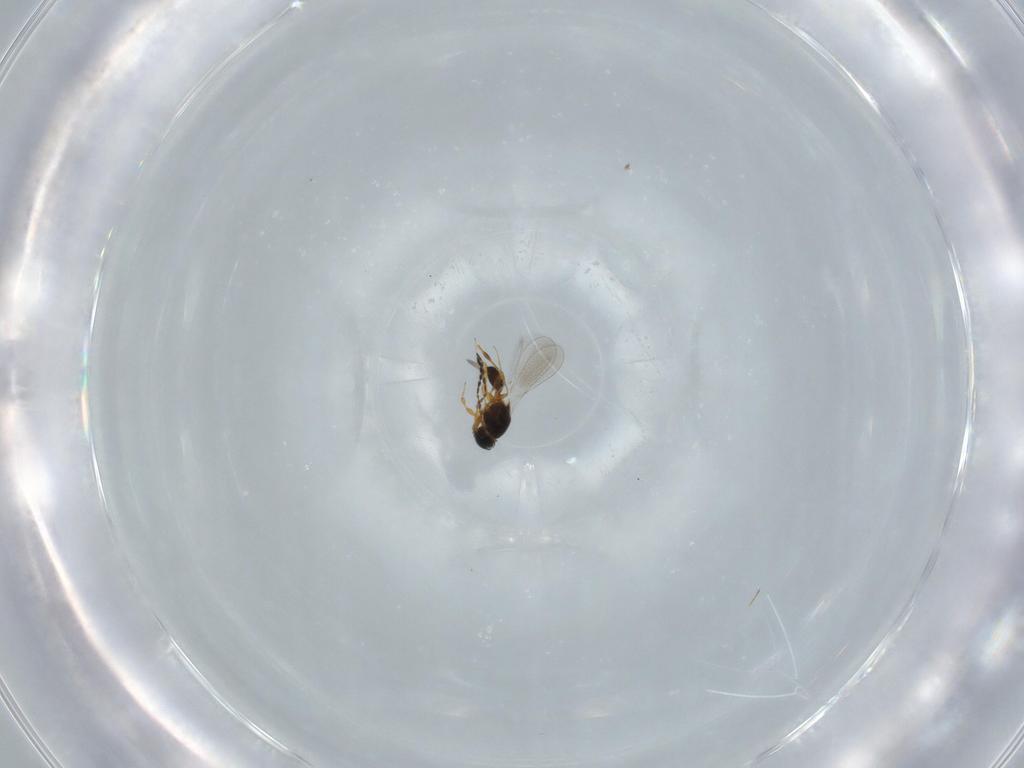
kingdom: Animalia
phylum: Arthropoda
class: Insecta
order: Hymenoptera
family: Platygastridae
